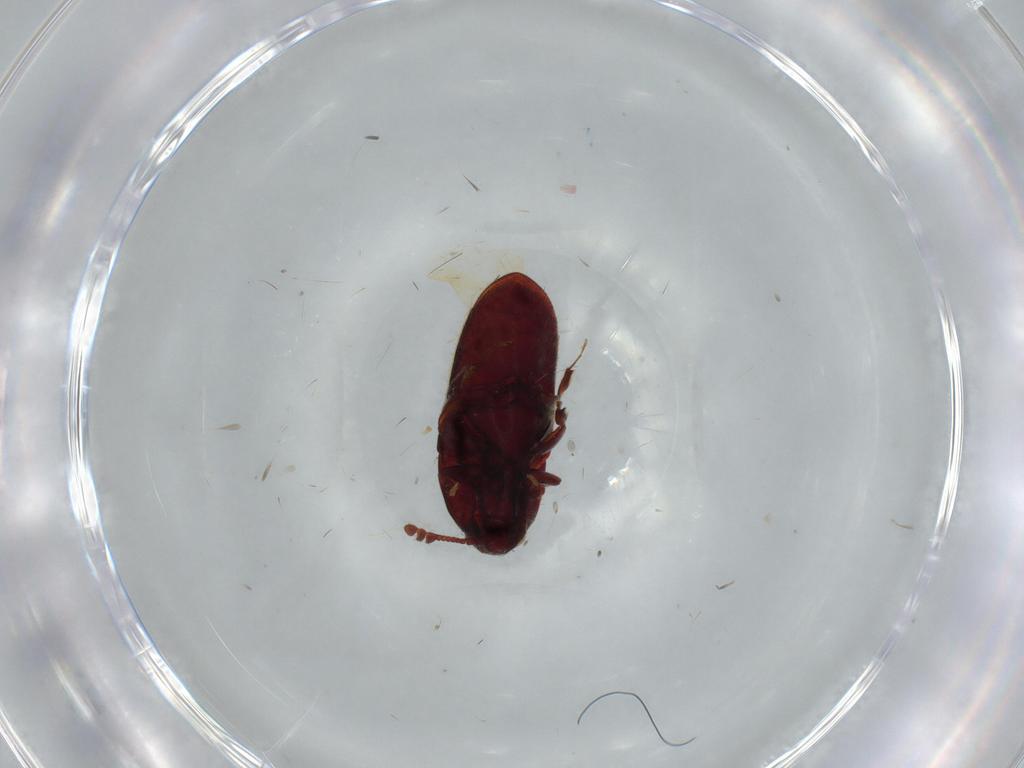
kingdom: Animalia
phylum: Arthropoda
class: Insecta
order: Coleoptera
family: Throscidae
